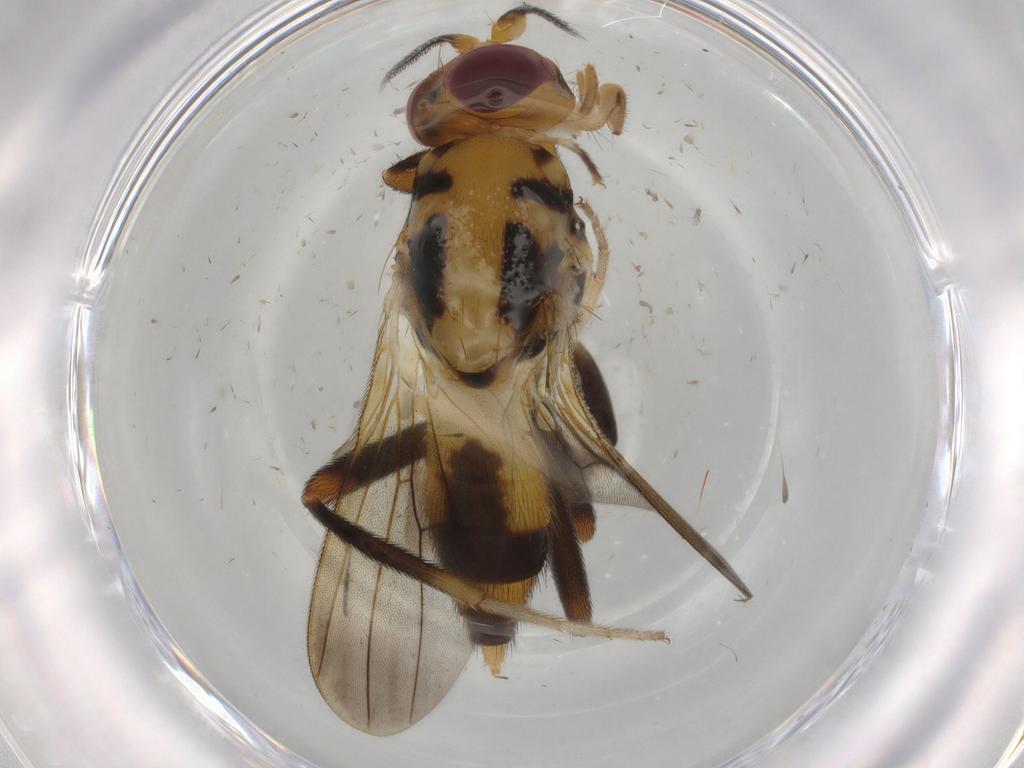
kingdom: Animalia
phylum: Arthropoda
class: Insecta
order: Diptera
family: Clusiidae
